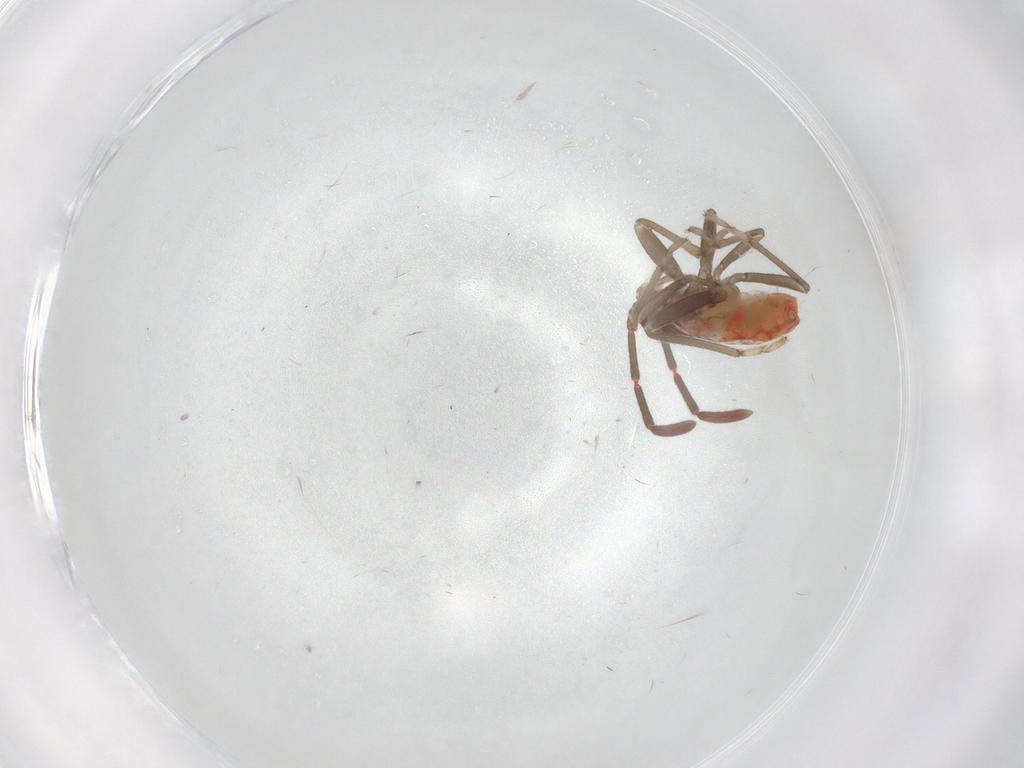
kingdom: Animalia
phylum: Arthropoda
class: Insecta
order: Hemiptera
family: Rhyparochromidae
